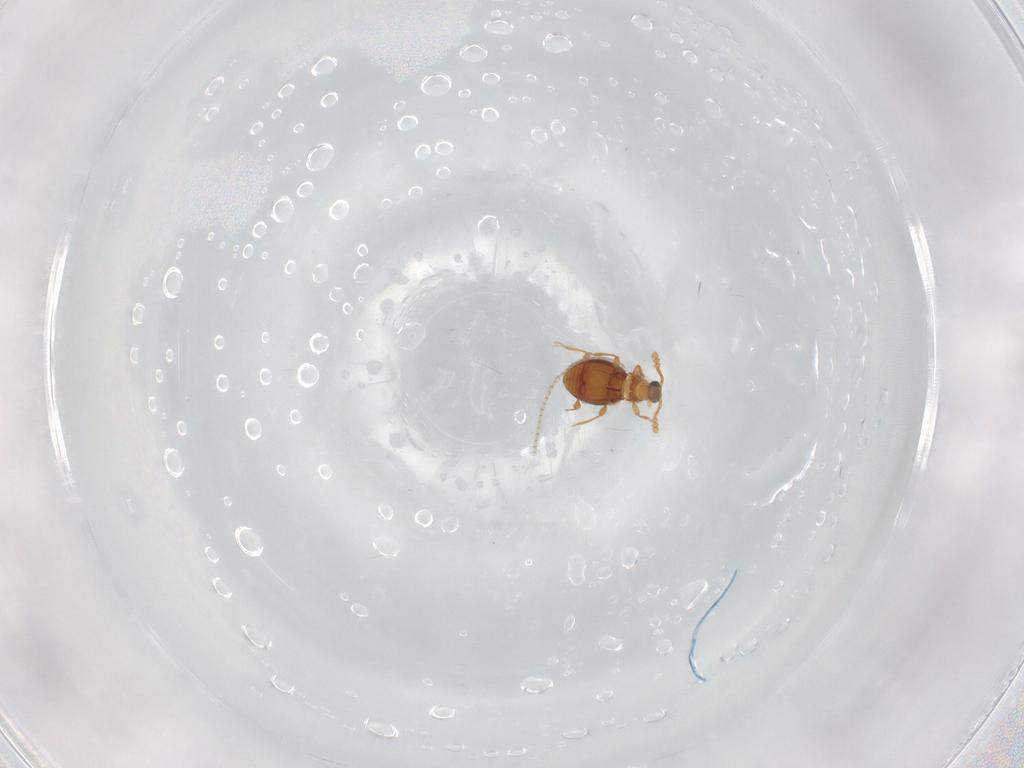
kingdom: Animalia
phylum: Arthropoda
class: Insecta
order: Coleoptera
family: Staphylinidae
